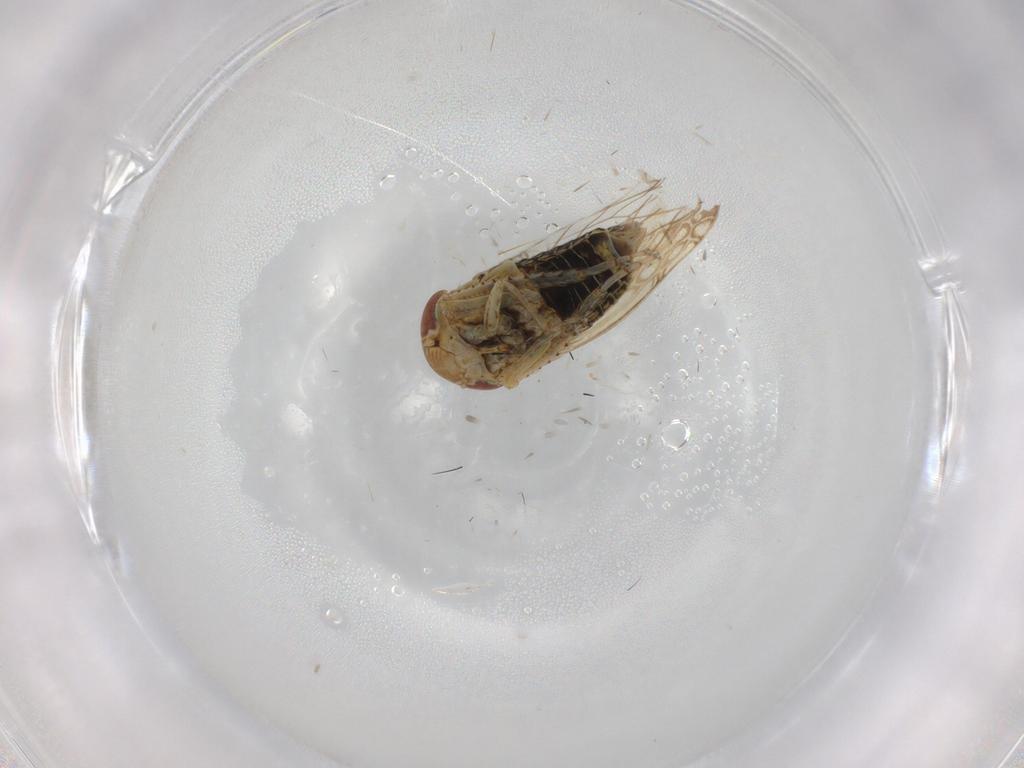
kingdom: Animalia
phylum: Arthropoda
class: Insecta
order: Hemiptera
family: Cicadellidae
